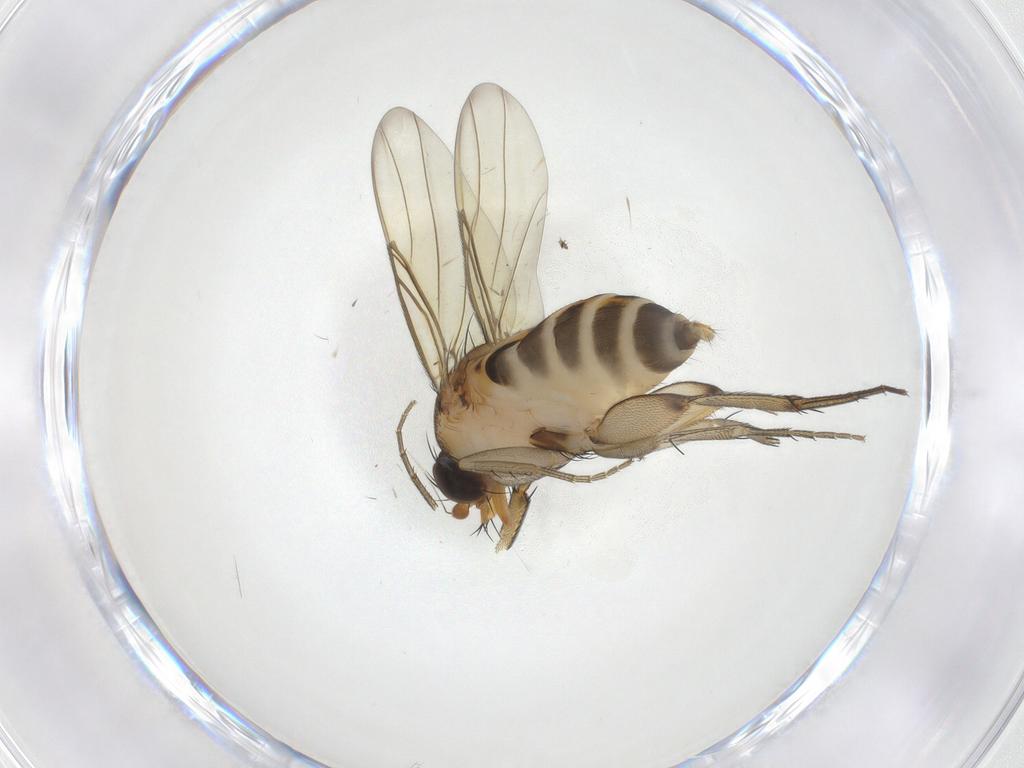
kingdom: Animalia
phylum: Arthropoda
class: Insecta
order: Diptera
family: Phoridae
